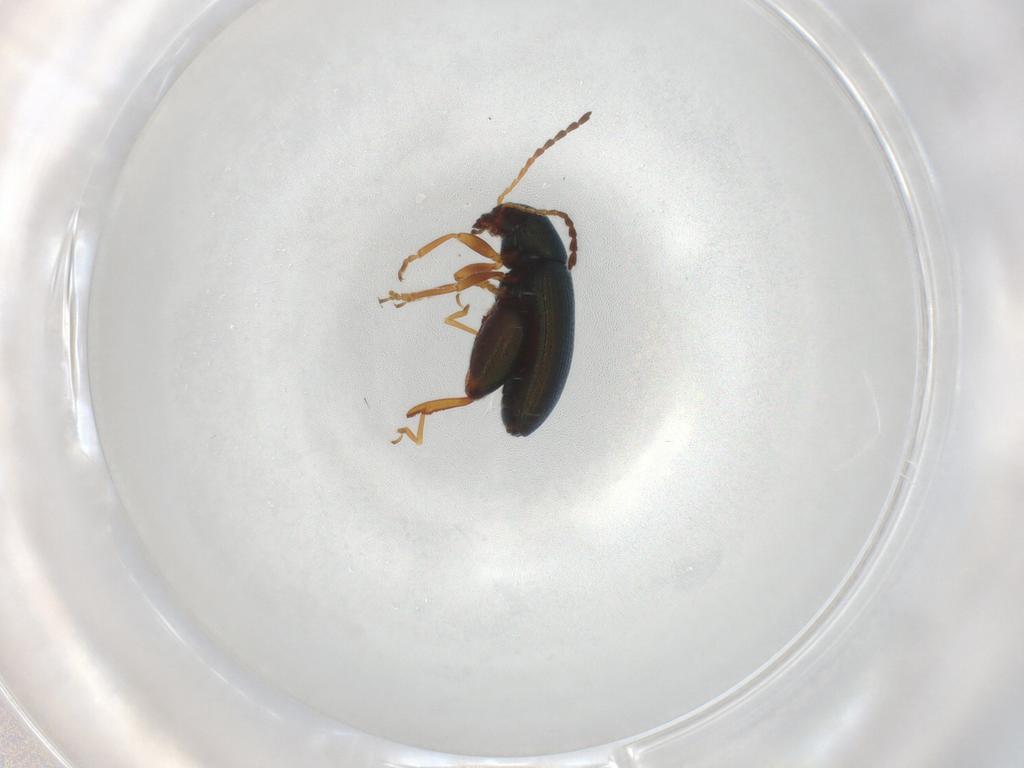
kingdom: Animalia
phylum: Arthropoda
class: Insecta
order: Coleoptera
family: Chrysomelidae
